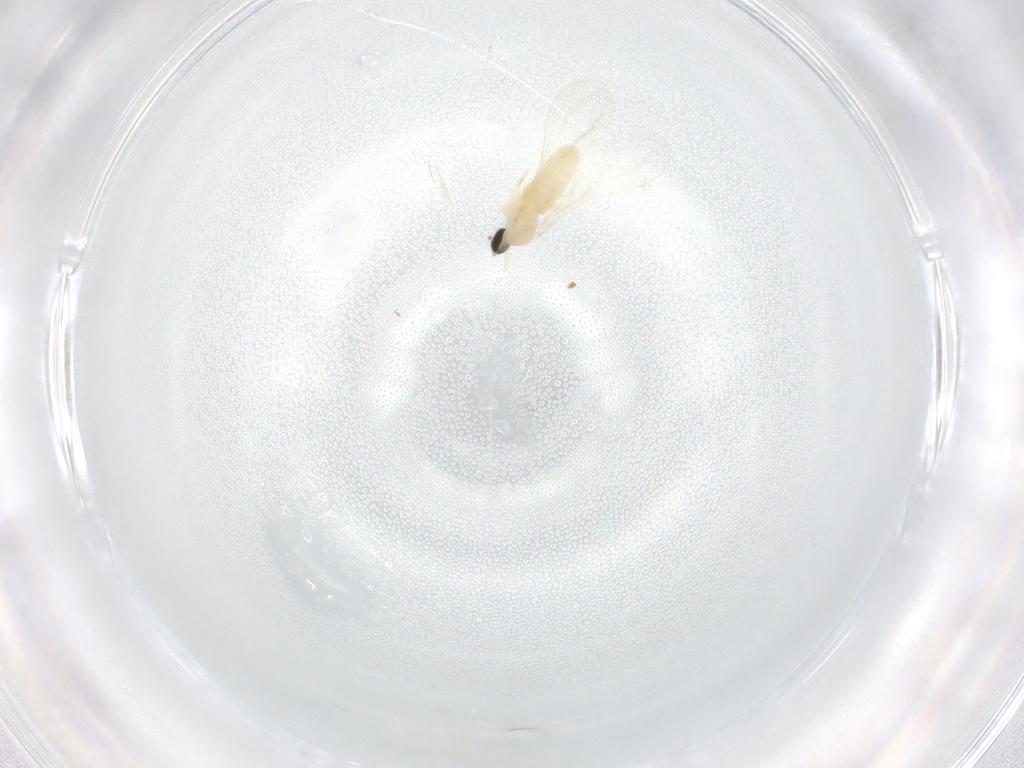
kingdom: Animalia
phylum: Arthropoda
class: Insecta
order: Diptera
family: Cecidomyiidae
